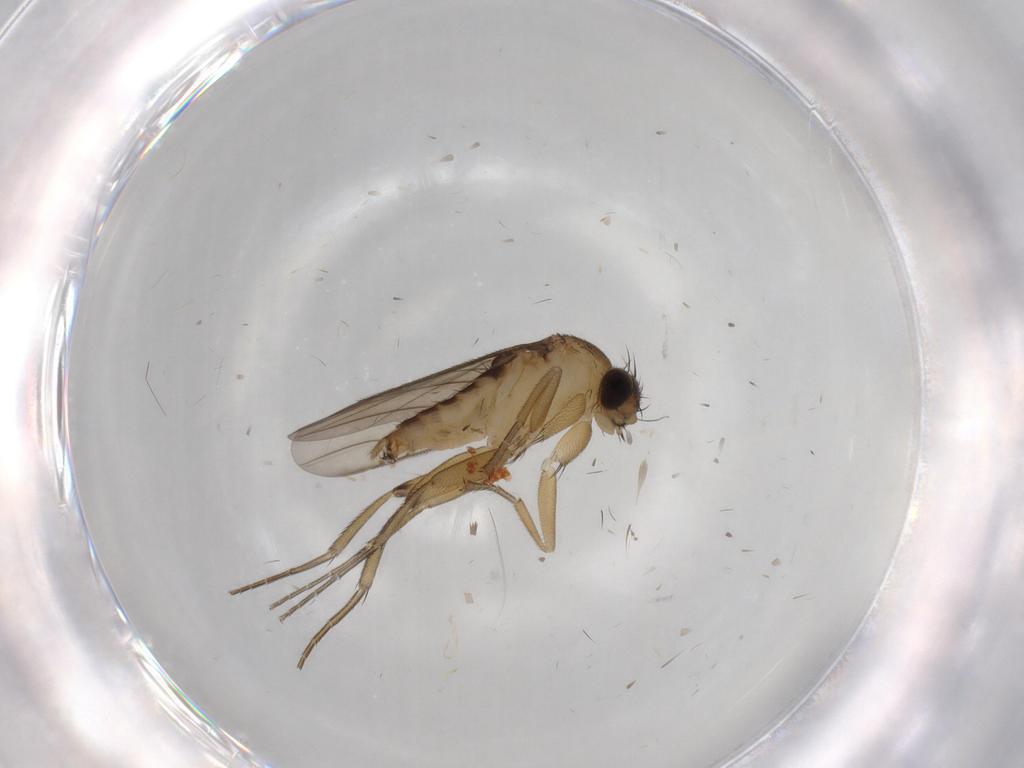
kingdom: Animalia
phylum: Arthropoda
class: Insecta
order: Diptera
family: Phoridae
